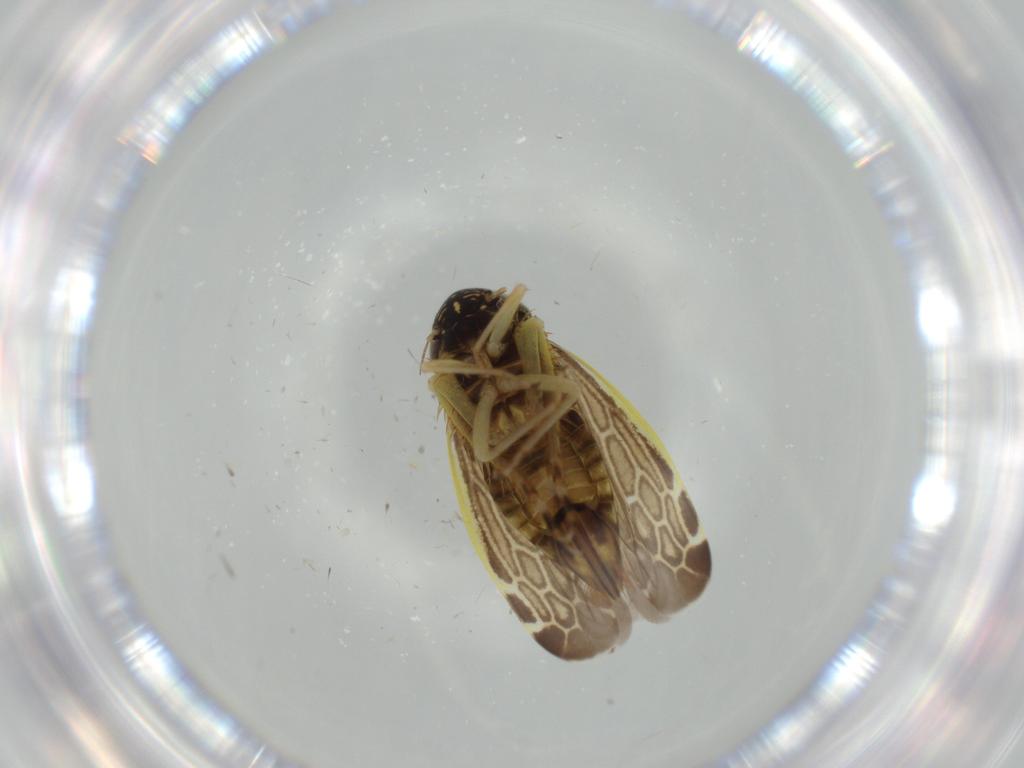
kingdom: Animalia
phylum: Arthropoda
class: Insecta
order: Hemiptera
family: Cicadellidae
